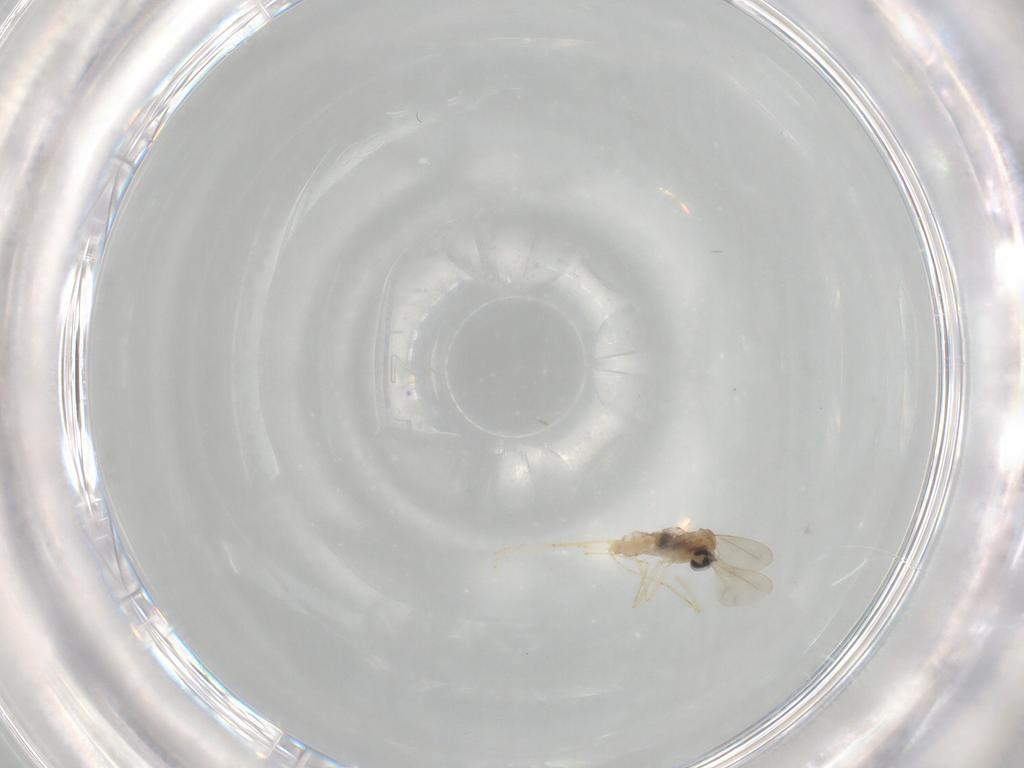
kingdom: Animalia
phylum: Arthropoda
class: Insecta
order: Diptera
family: Cecidomyiidae
